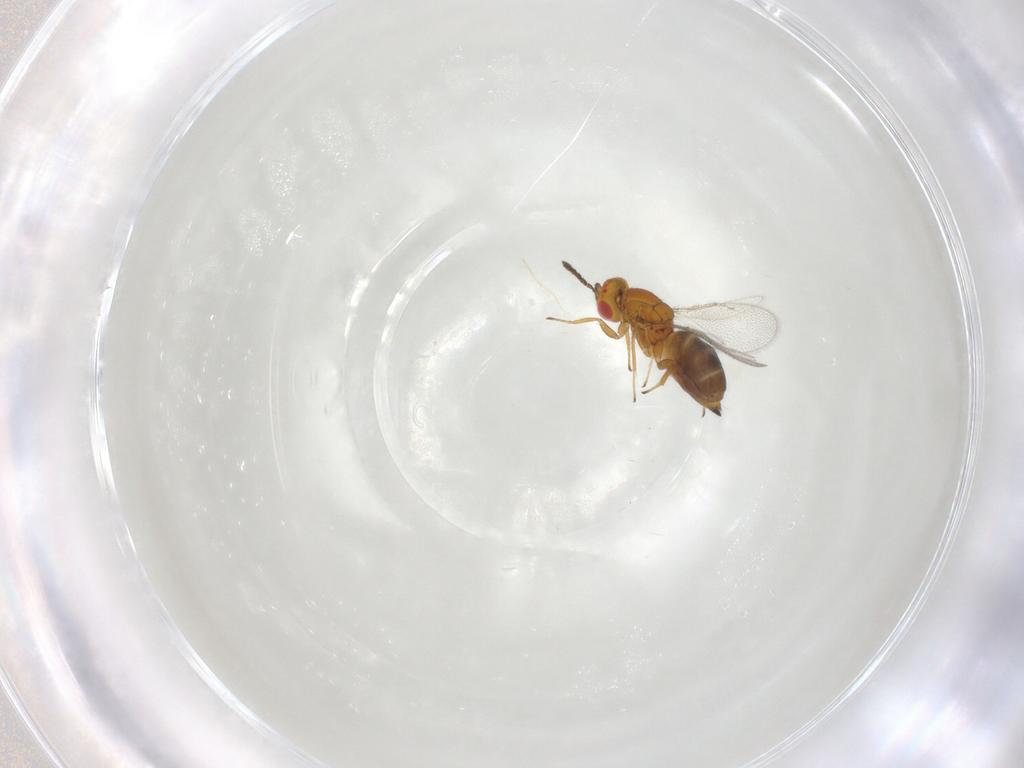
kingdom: Animalia
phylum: Arthropoda
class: Insecta
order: Hymenoptera
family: Eulophidae
